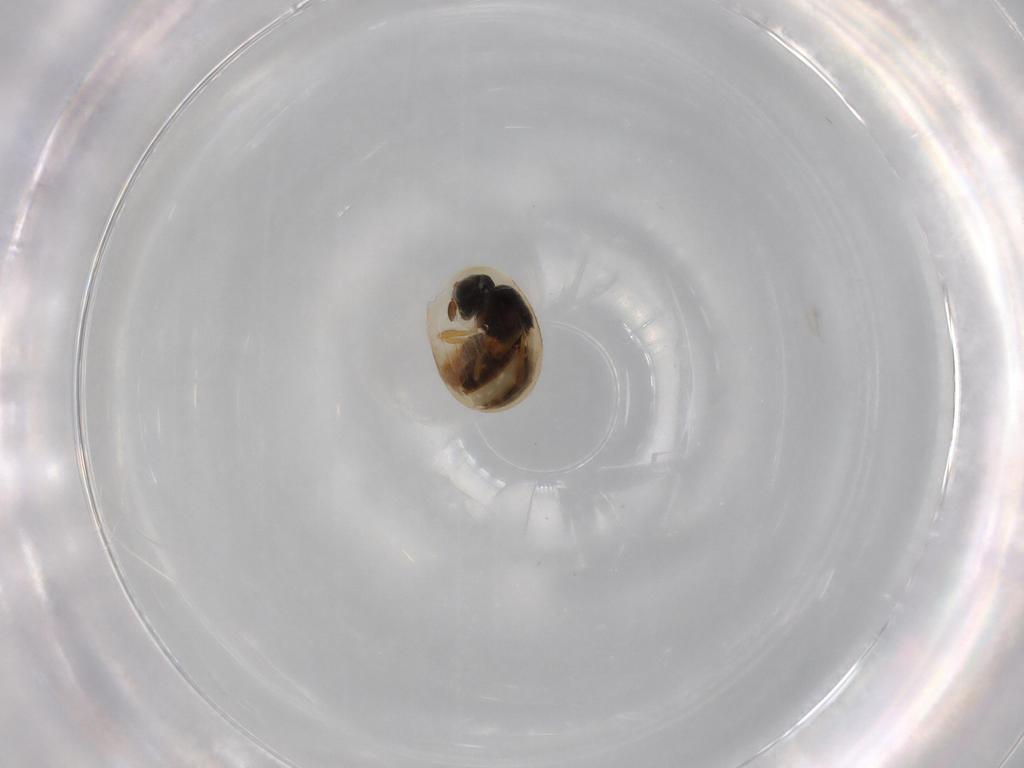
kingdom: Animalia
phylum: Arthropoda
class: Insecta
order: Hymenoptera
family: Scelionidae
